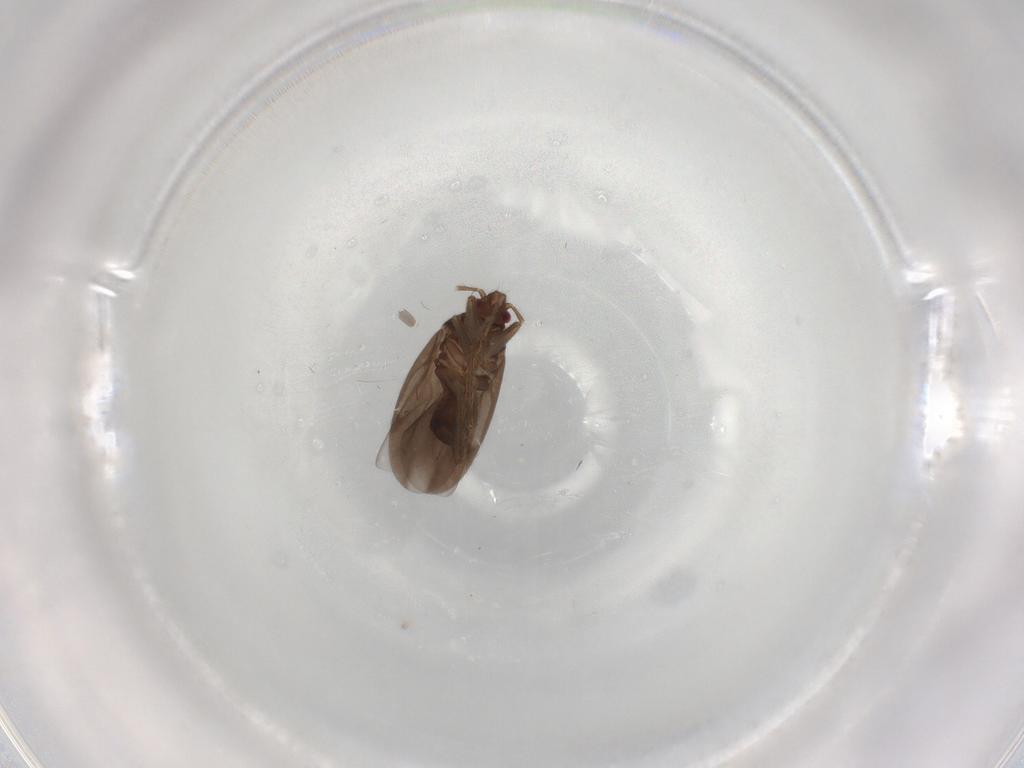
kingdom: Animalia
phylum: Arthropoda
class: Insecta
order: Hemiptera
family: Ceratocombidae
